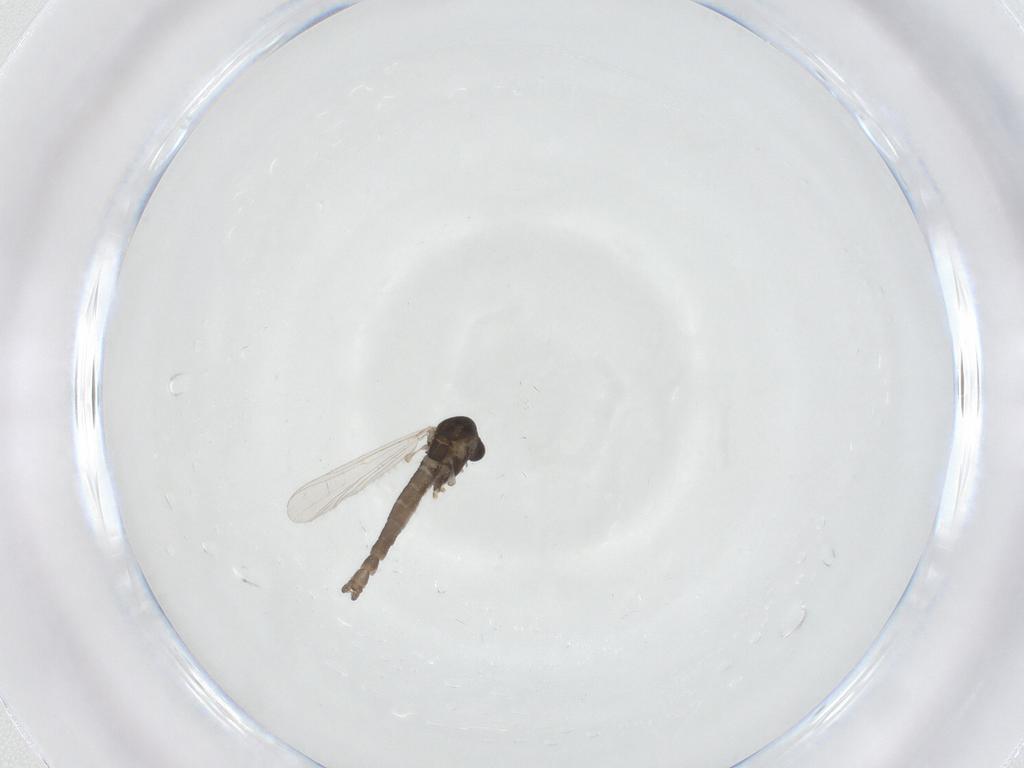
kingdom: Animalia
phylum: Arthropoda
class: Insecta
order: Diptera
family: Chironomidae
